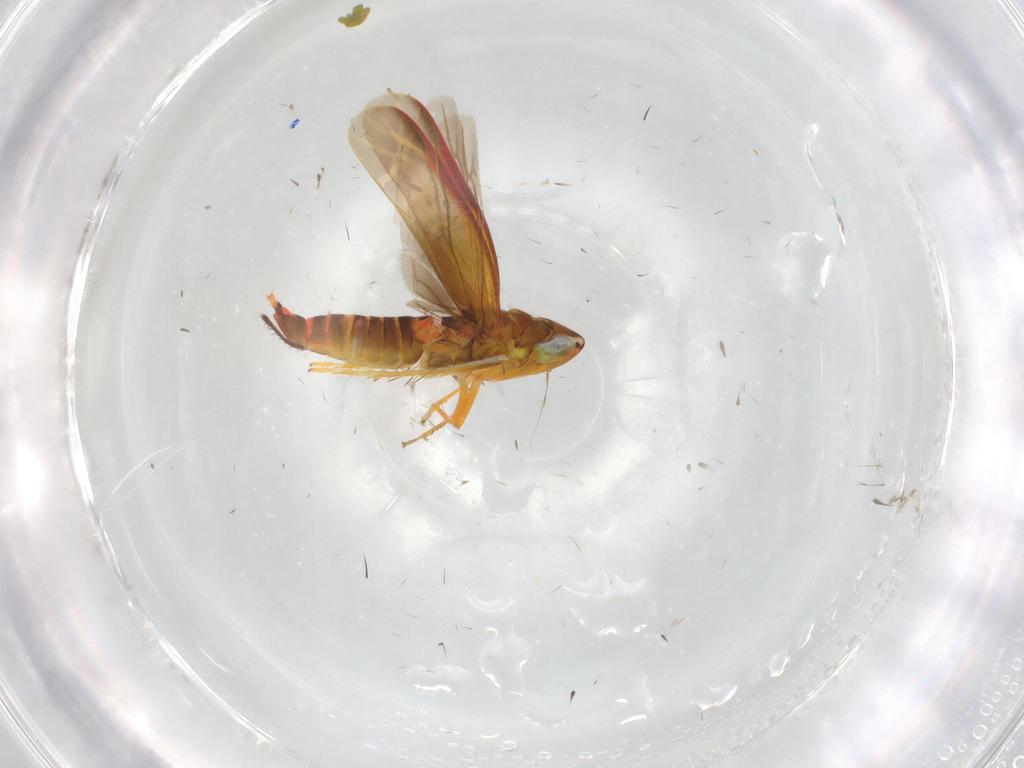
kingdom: Animalia
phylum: Arthropoda
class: Insecta
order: Hemiptera
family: Cicadellidae
